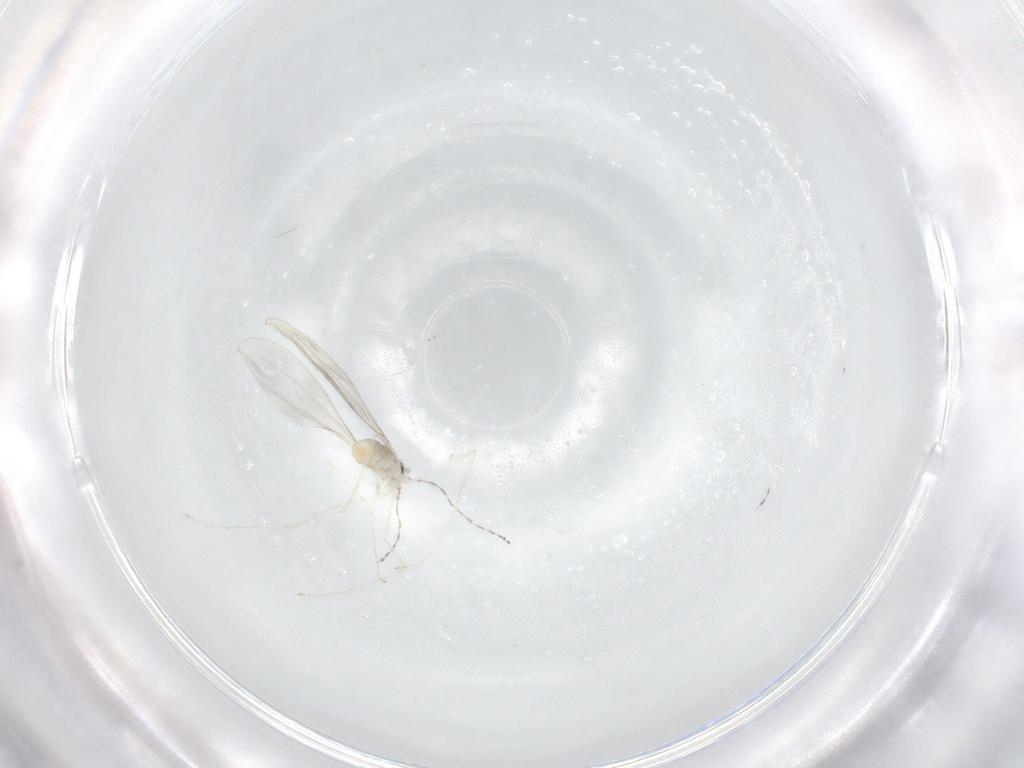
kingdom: Animalia
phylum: Arthropoda
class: Insecta
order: Diptera
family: Cecidomyiidae
